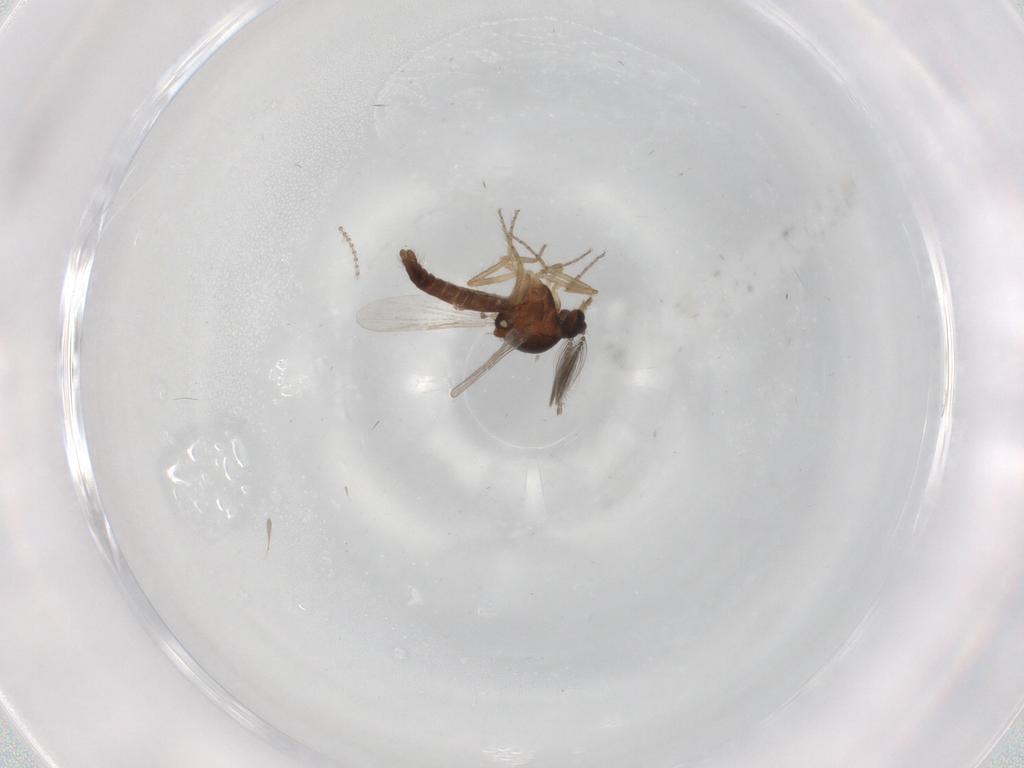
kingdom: Animalia
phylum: Arthropoda
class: Insecta
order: Diptera
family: Ceratopogonidae
